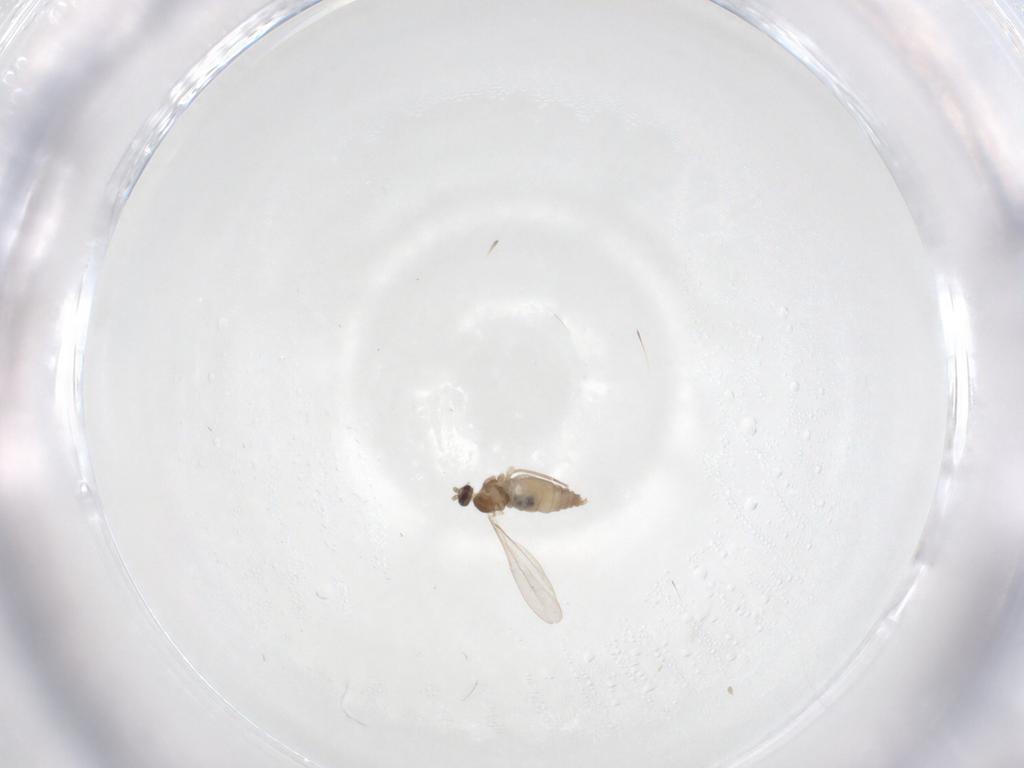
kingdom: Animalia
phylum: Arthropoda
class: Insecta
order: Diptera
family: Cecidomyiidae
